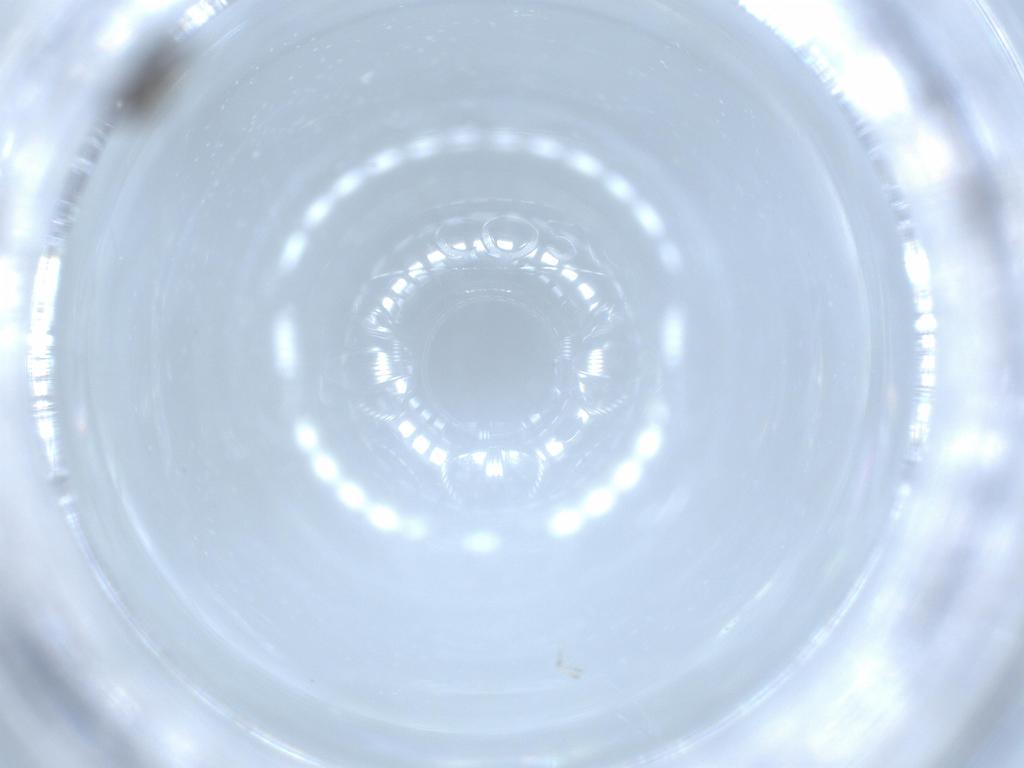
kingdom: Animalia
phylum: Arthropoda
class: Insecta
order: Diptera
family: Ceratopogonidae
